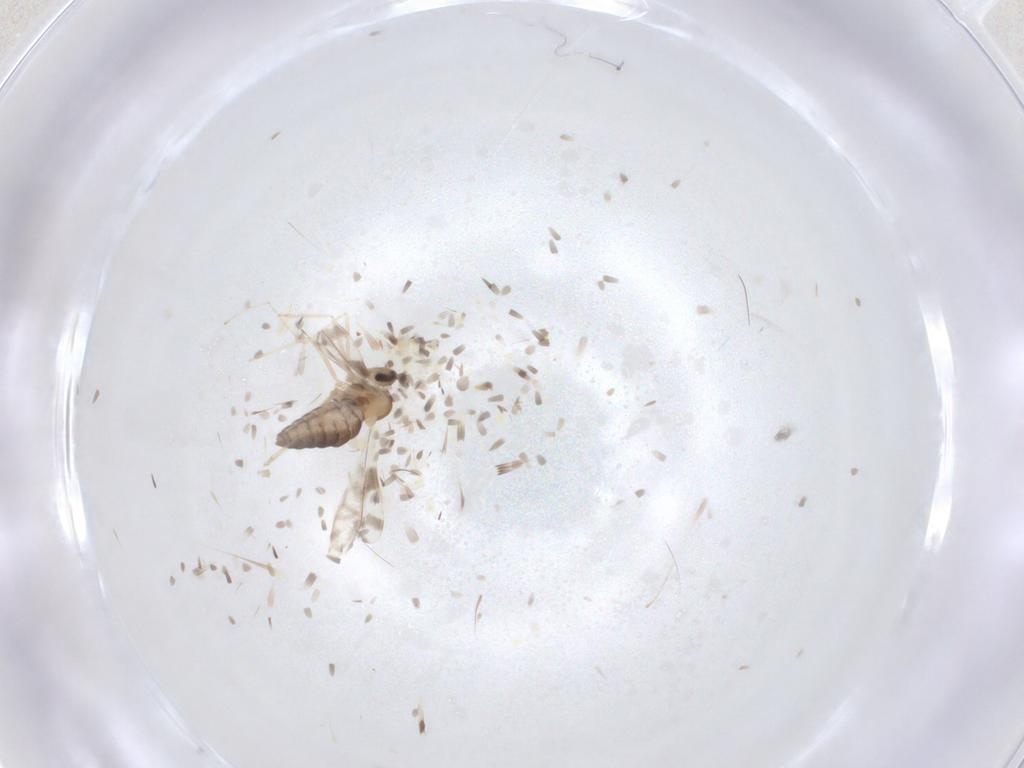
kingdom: Animalia
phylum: Arthropoda
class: Insecta
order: Diptera
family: Cecidomyiidae
